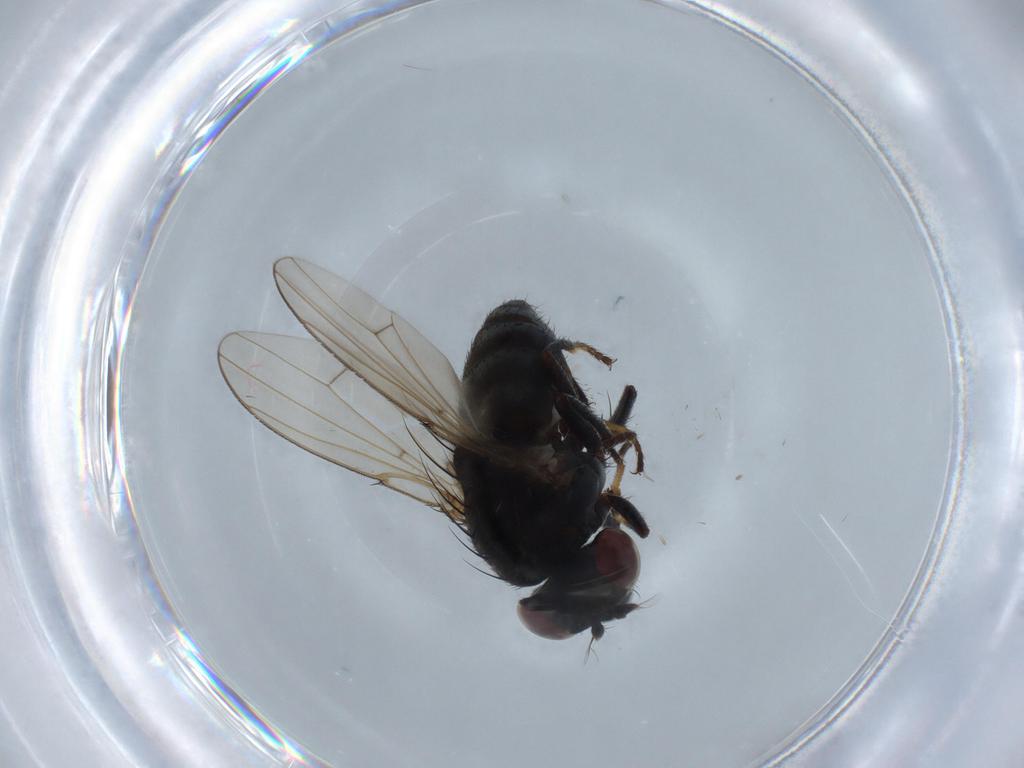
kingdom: Animalia
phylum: Arthropoda
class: Insecta
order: Diptera
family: Ephydridae
